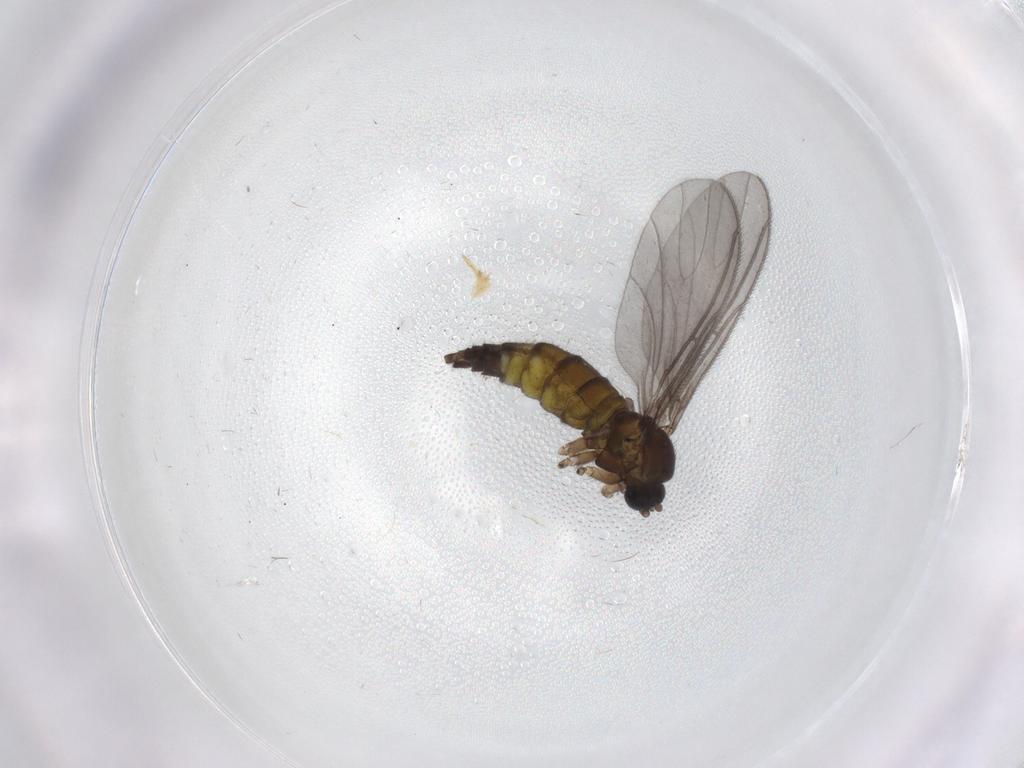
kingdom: Animalia
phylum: Arthropoda
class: Insecta
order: Diptera
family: Sciaridae
